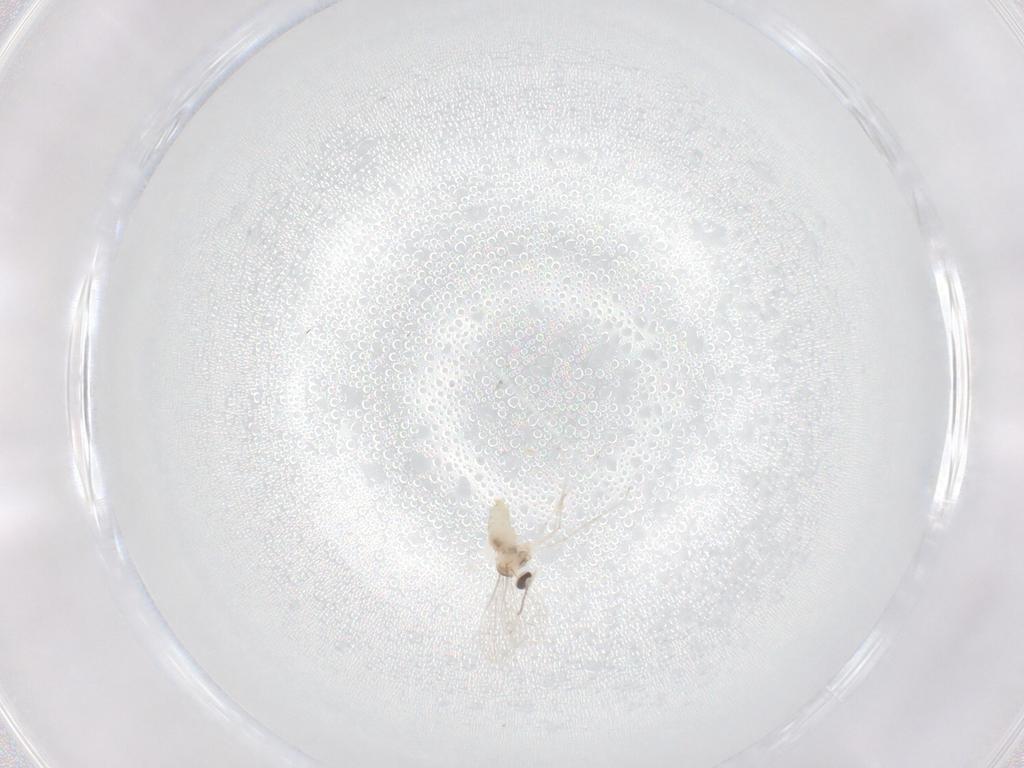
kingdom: Animalia
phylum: Arthropoda
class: Insecta
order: Diptera
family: Cecidomyiidae
